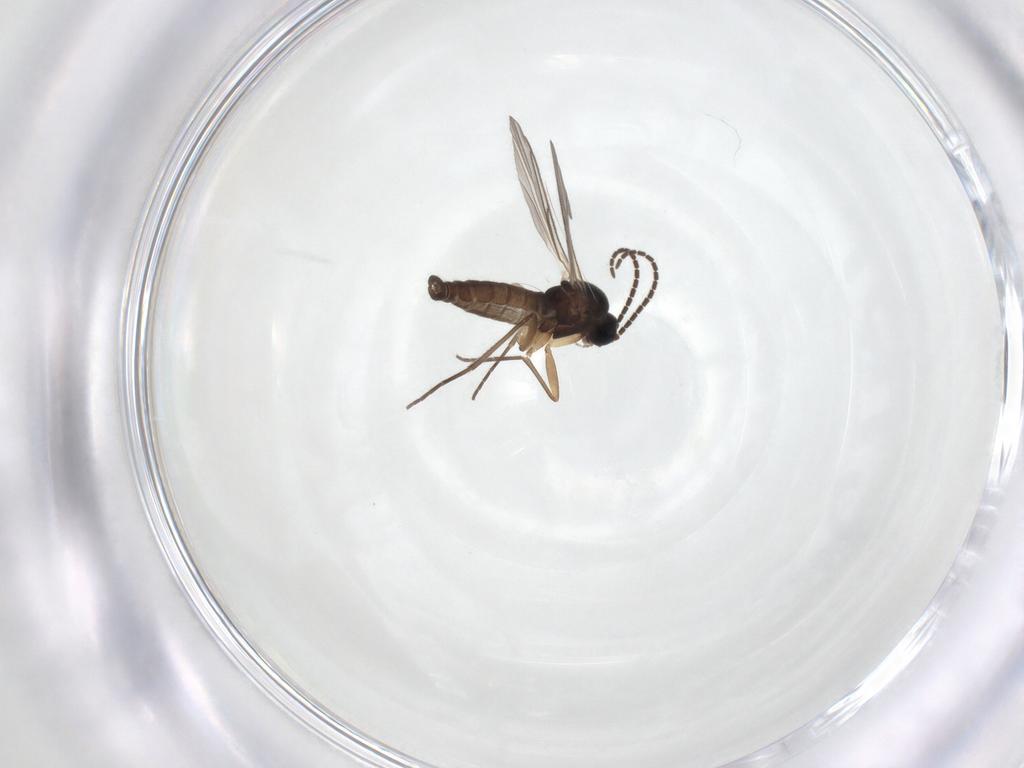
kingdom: Animalia
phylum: Arthropoda
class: Insecta
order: Diptera
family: Sciaridae
